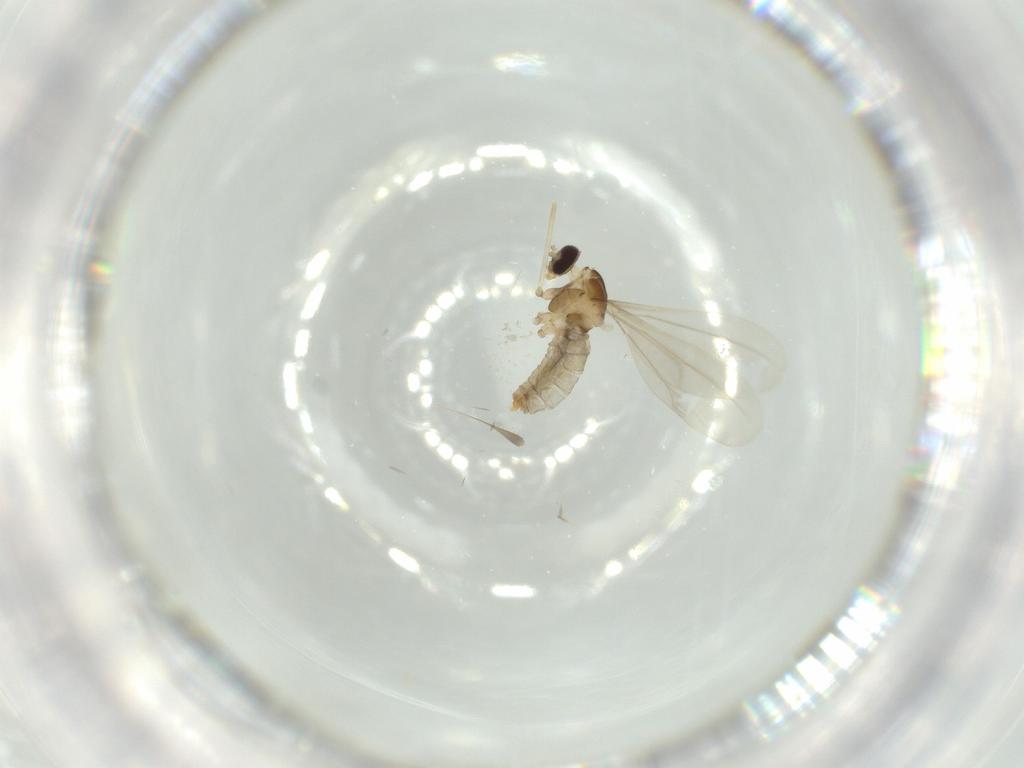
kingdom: Animalia
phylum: Arthropoda
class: Insecta
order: Diptera
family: Cecidomyiidae
